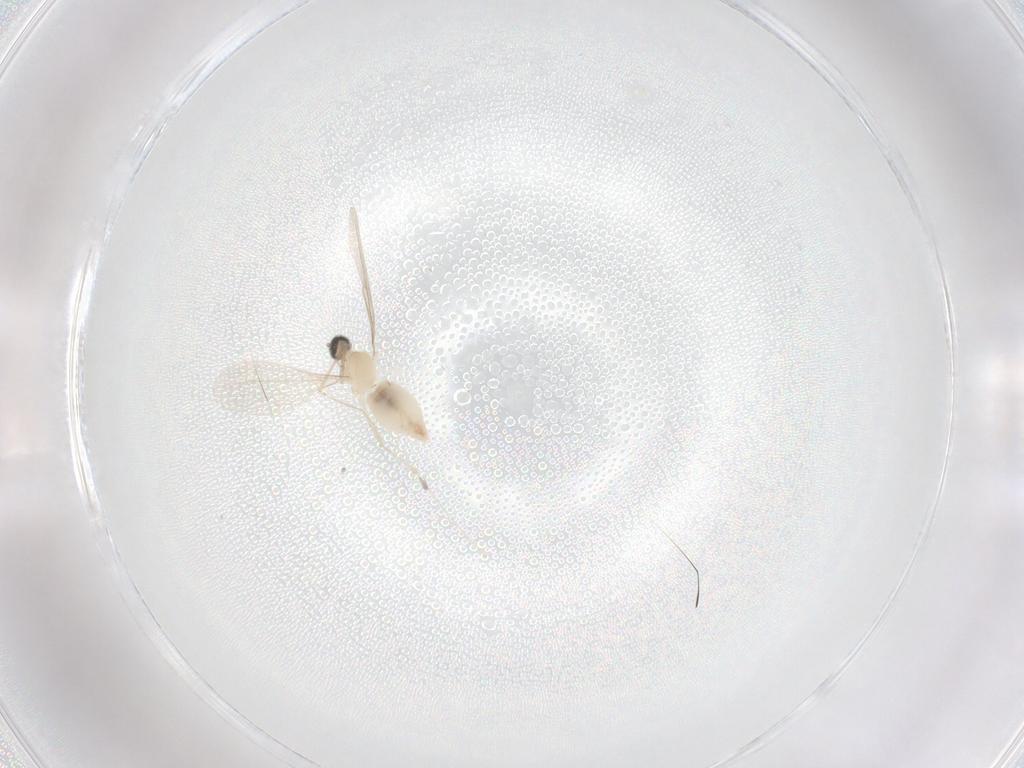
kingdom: Animalia
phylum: Arthropoda
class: Insecta
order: Diptera
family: Cecidomyiidae
